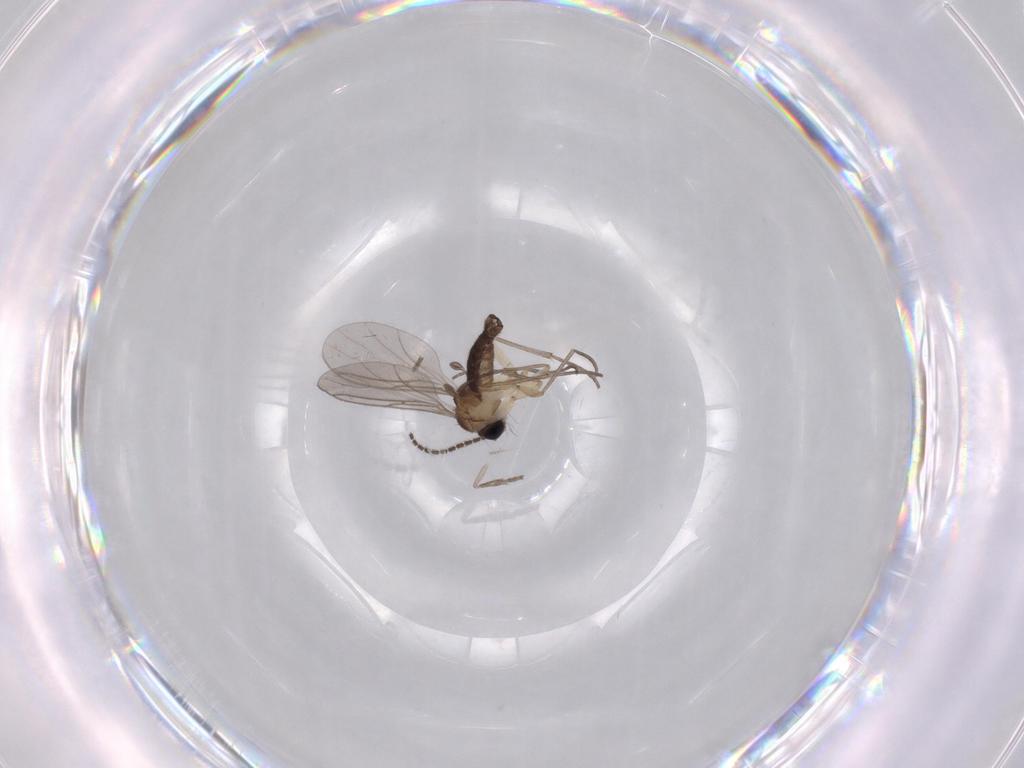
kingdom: Animalia
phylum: Arthropoda
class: Insecta
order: Diptera
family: Psychodidae
